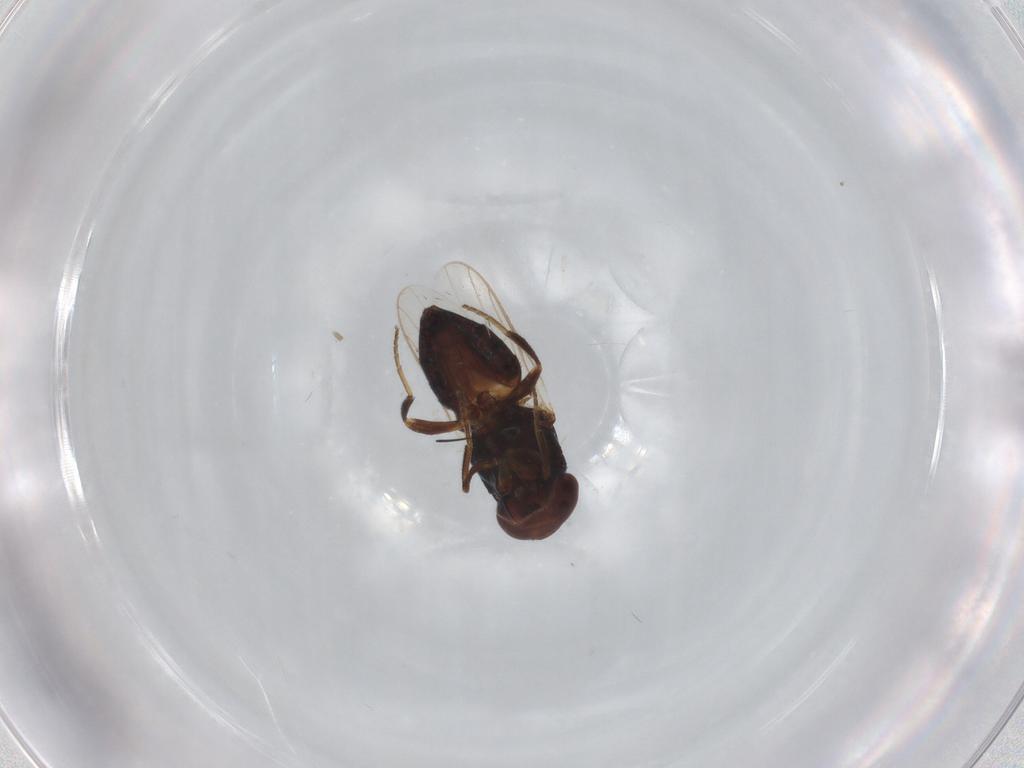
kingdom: Animalia
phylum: Arthropoda
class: Insecta
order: Diptera
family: Chloropidae
